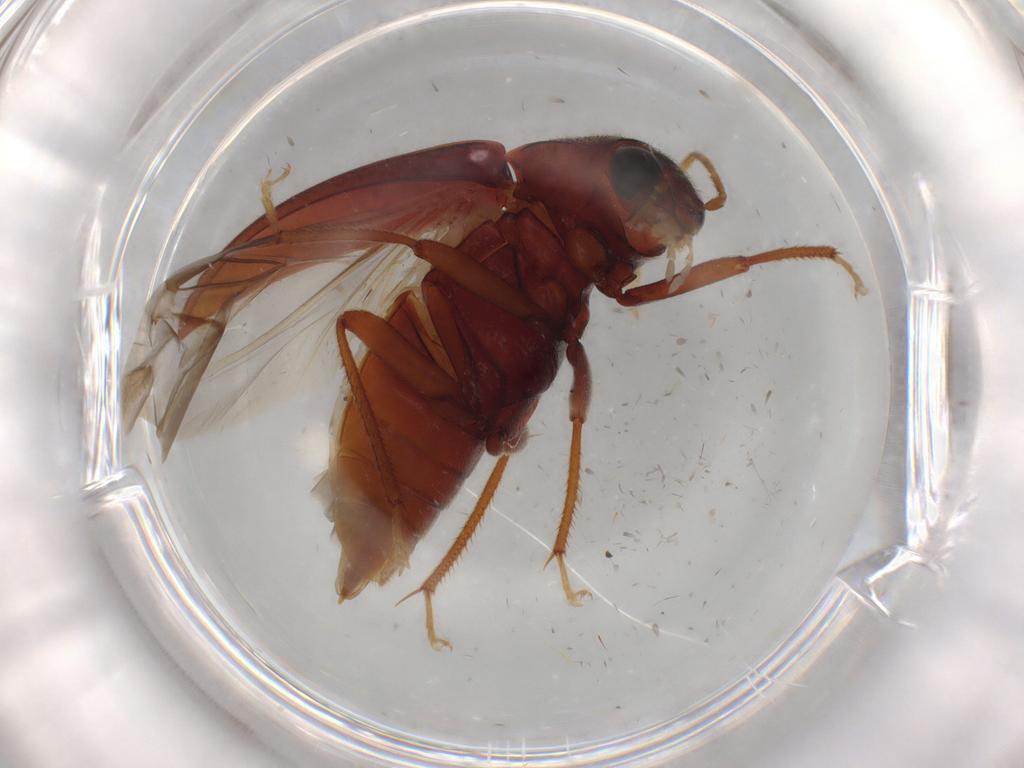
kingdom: Animalia
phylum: Arthropoda
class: Insecta
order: Coleoptera
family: Ptilodactylidae
